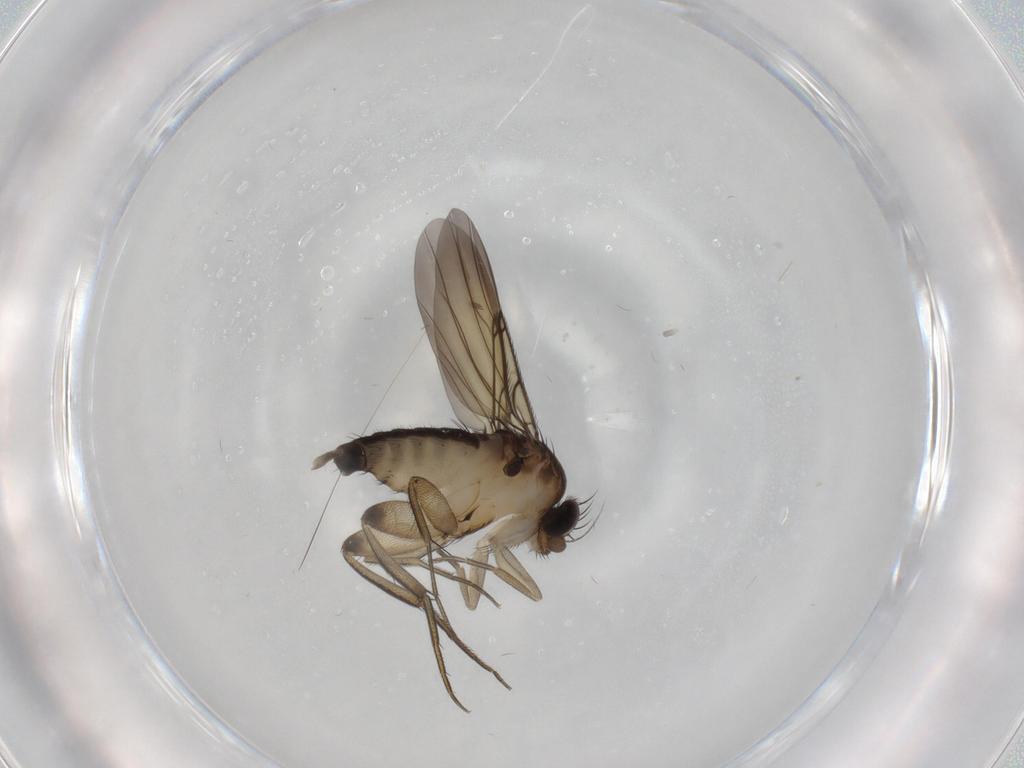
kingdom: Animalia
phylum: Arthropoda
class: Insecta
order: Diptera
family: Phoridae
